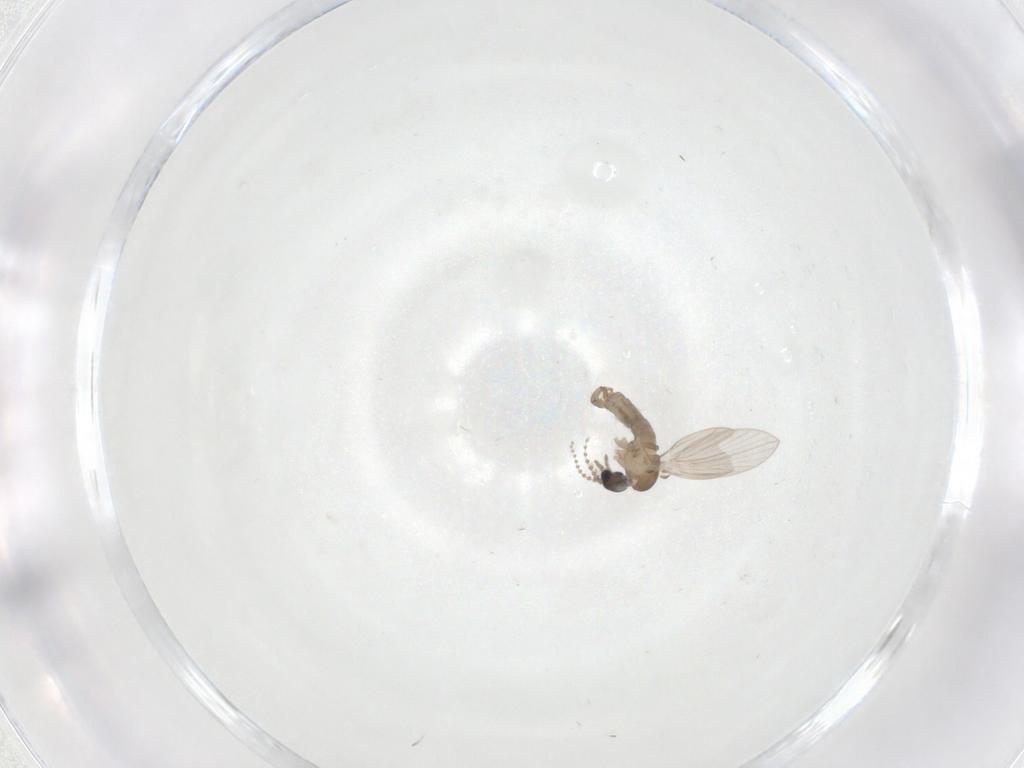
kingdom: Animalia
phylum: Arthropoda
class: Insecta
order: Diptera
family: Psychodidae
